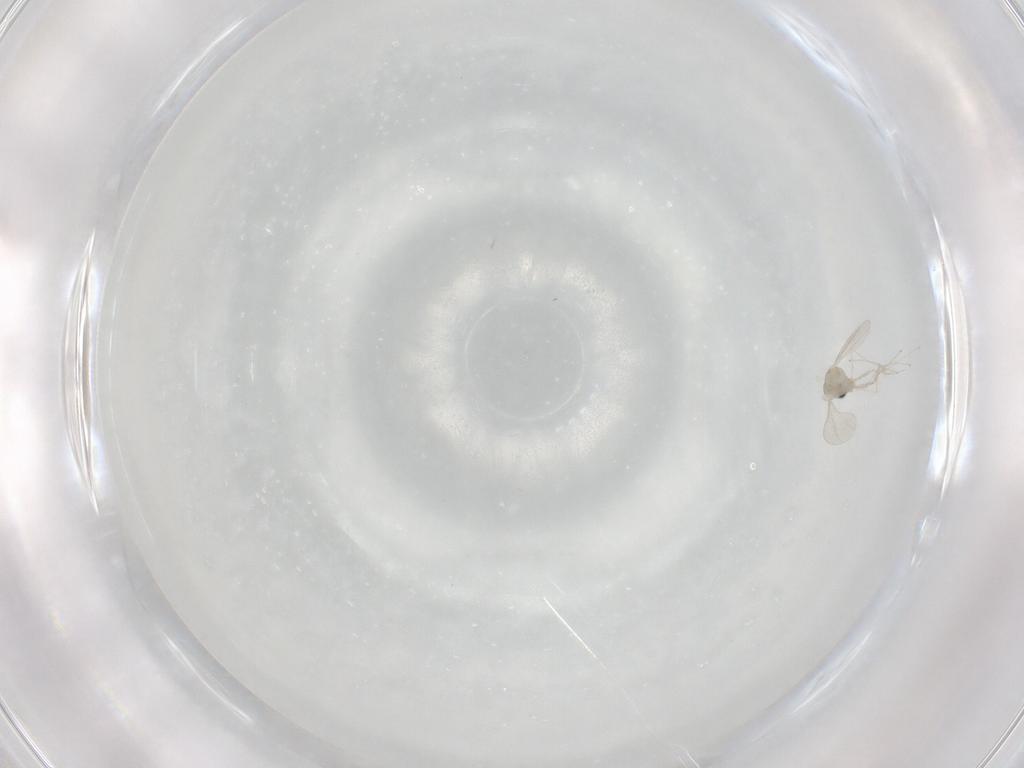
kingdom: Animalia
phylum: Arthropoda
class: Insecta
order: Diptera
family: Cecidomyiidae
